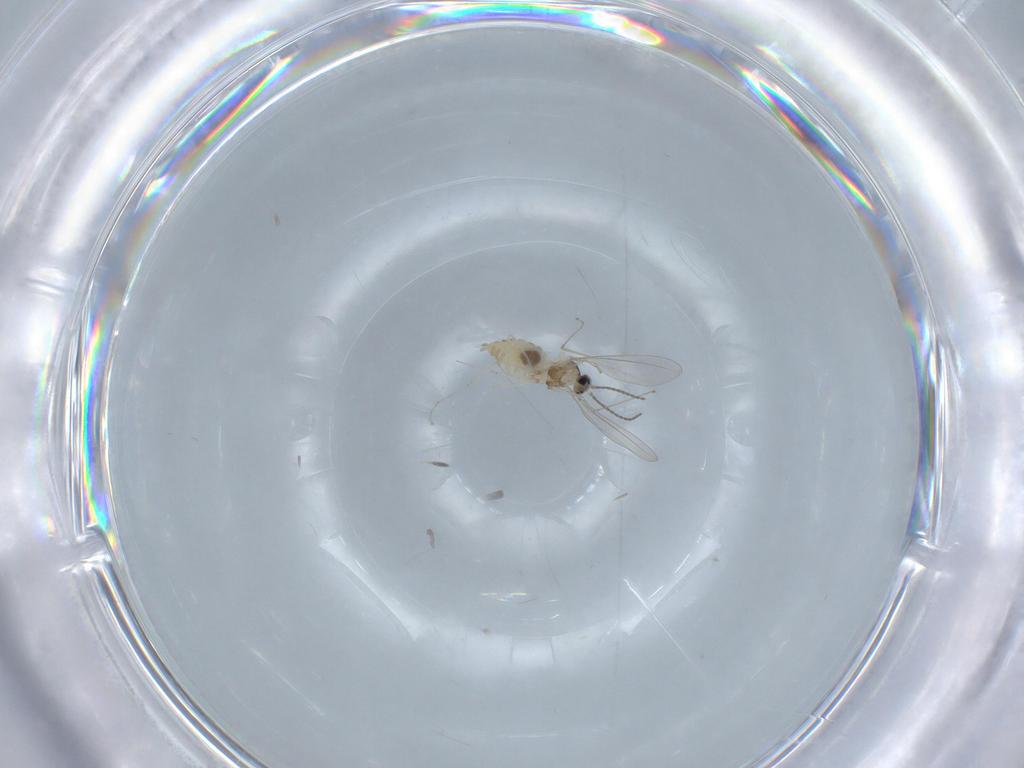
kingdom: Animalia
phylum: Arthropoda
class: Insecta
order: Diptera
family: Cecidomyiidae
